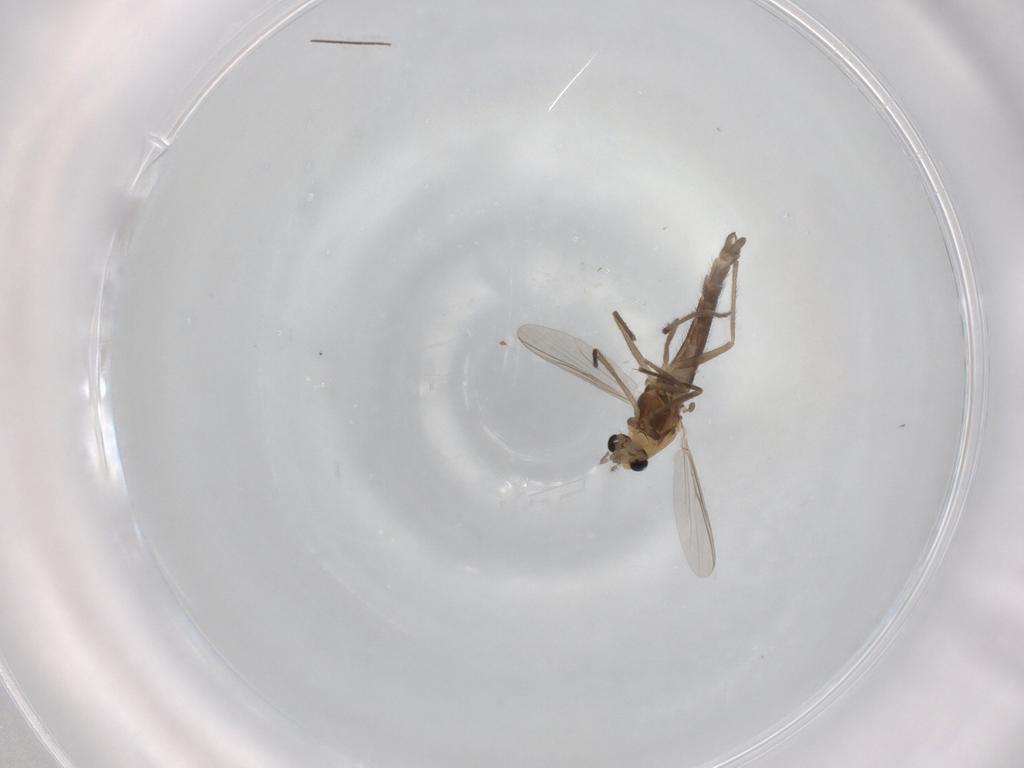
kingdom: Animalia
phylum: Arthropoda
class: Insecta
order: Diptera
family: Chironomidae
